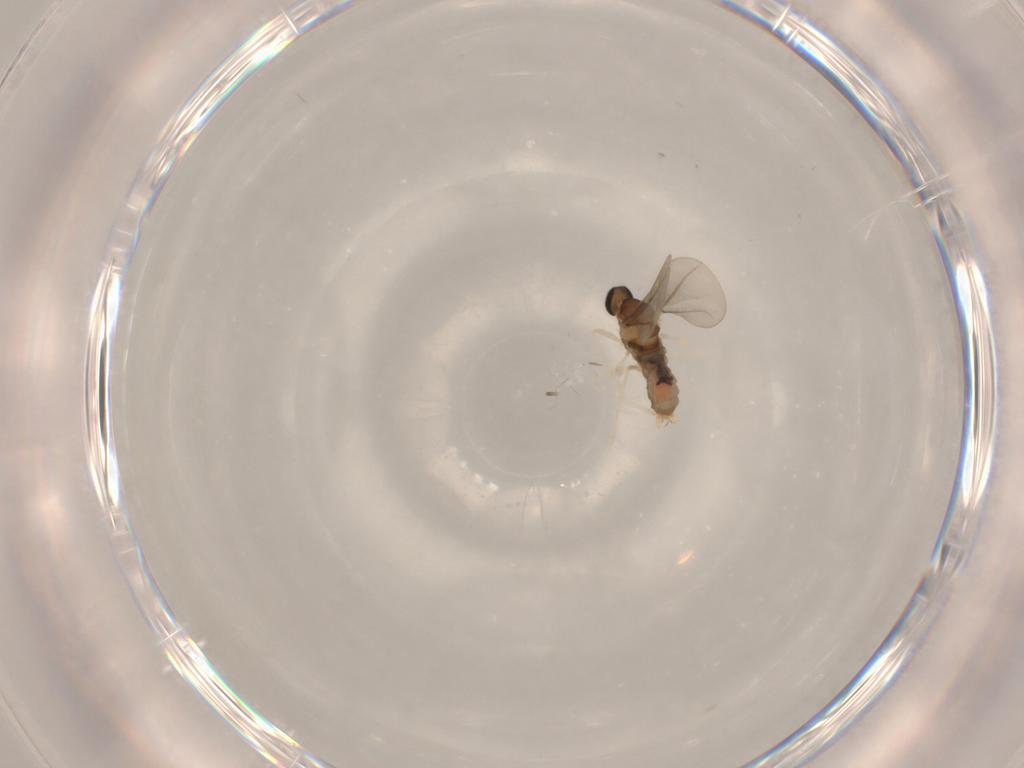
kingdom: Animalia
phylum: Arthropoda
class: Insecta
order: Diptera
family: Cecidomyiidae
